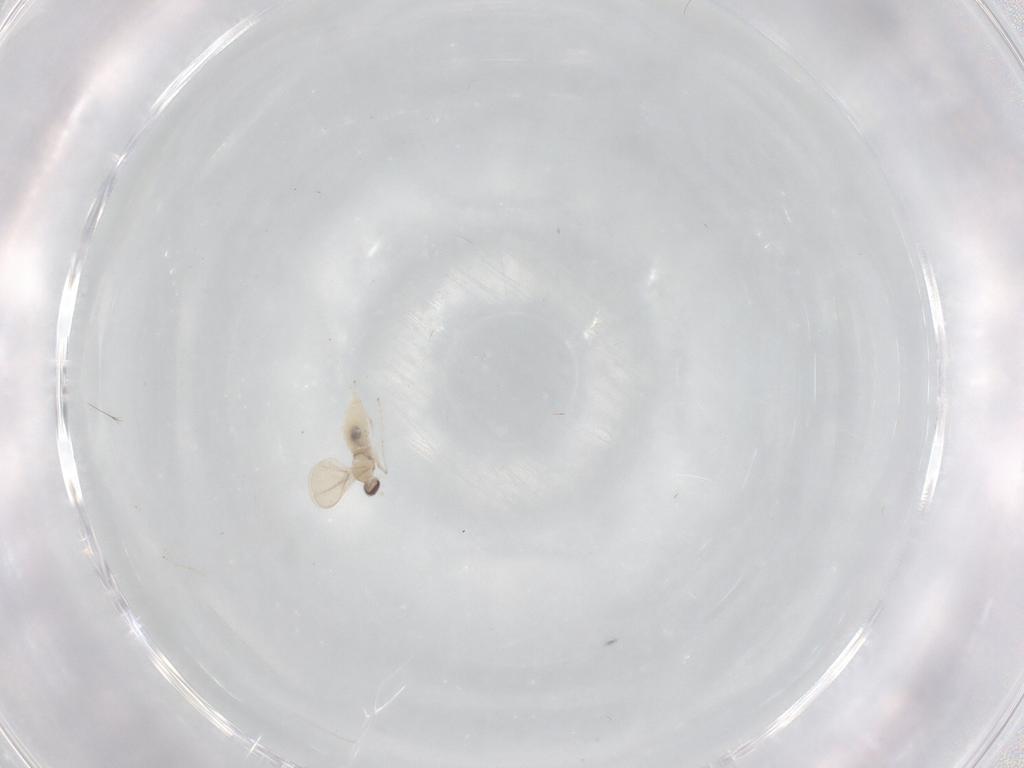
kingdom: Animalia
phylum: Arthropoda
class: Insecta
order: Diptera
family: Cecidomyiidae
